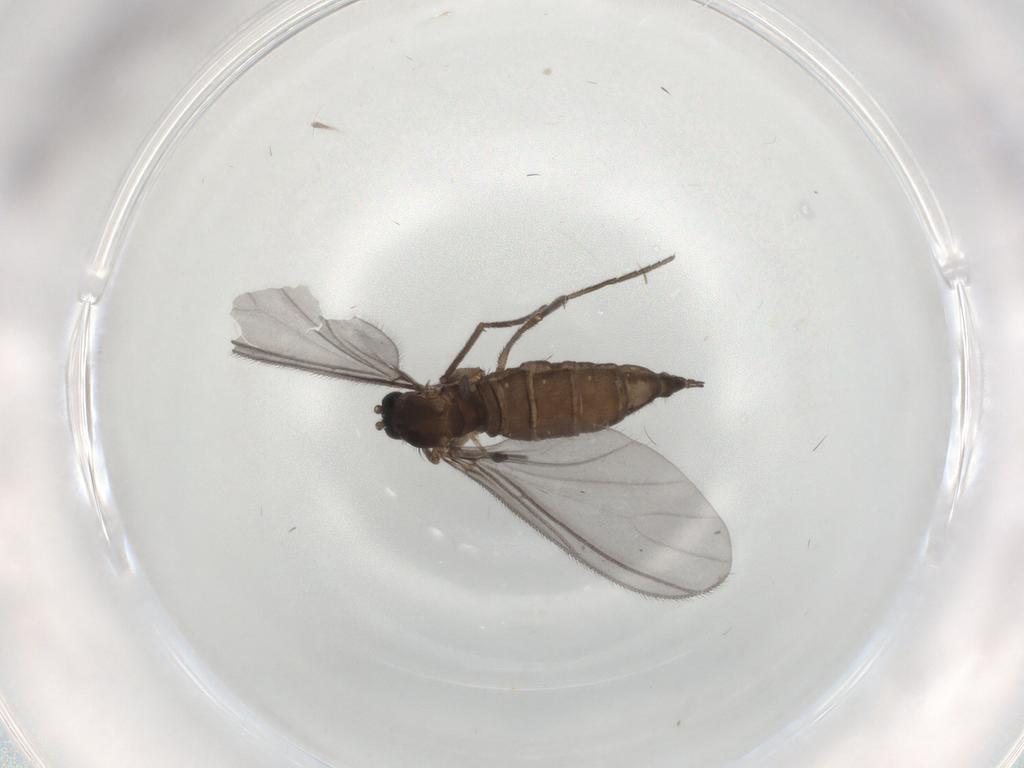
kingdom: Animalia
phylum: Arthropoda
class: Insecta
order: Diptera
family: Sciaridae
